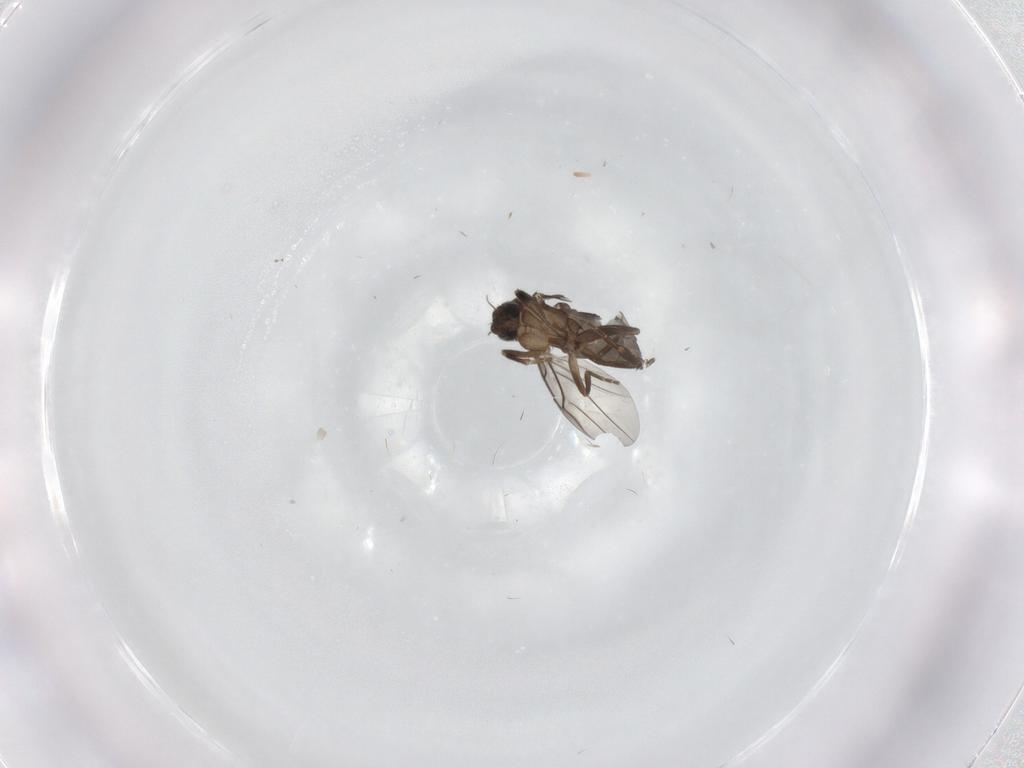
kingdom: Animalia
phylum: Arthropoda
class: Insecta
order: Diptera
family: Phoridae
